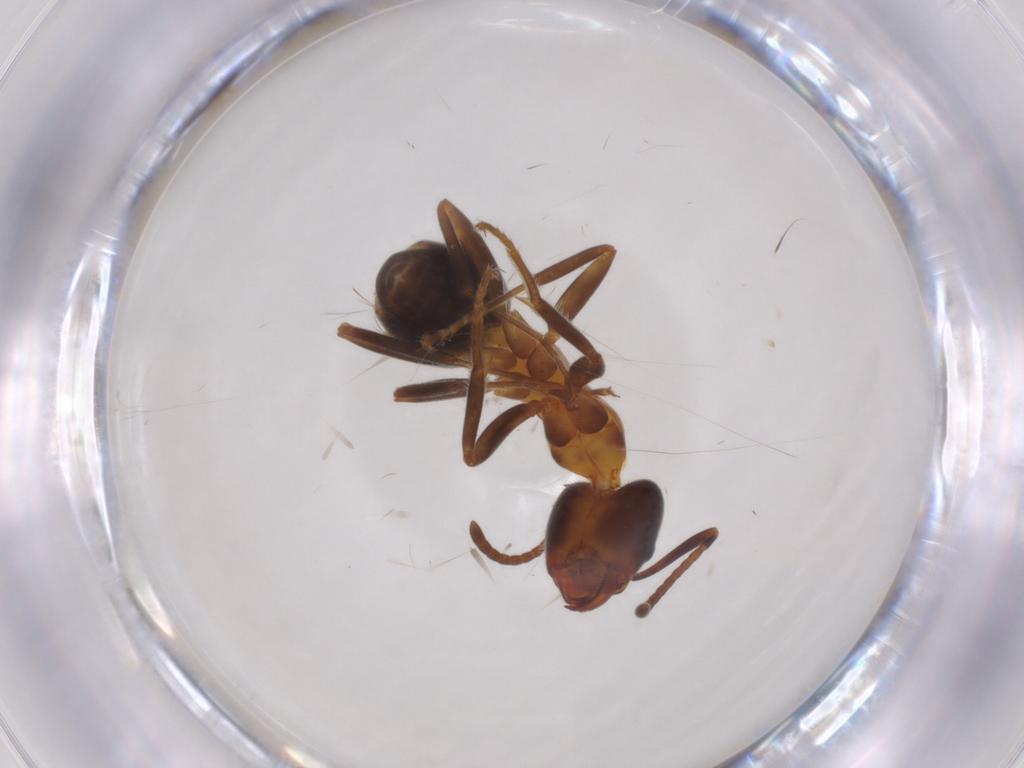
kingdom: Animalia
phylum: Arthropoda
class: Insecta
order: Hymenoptera
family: Formicidae
